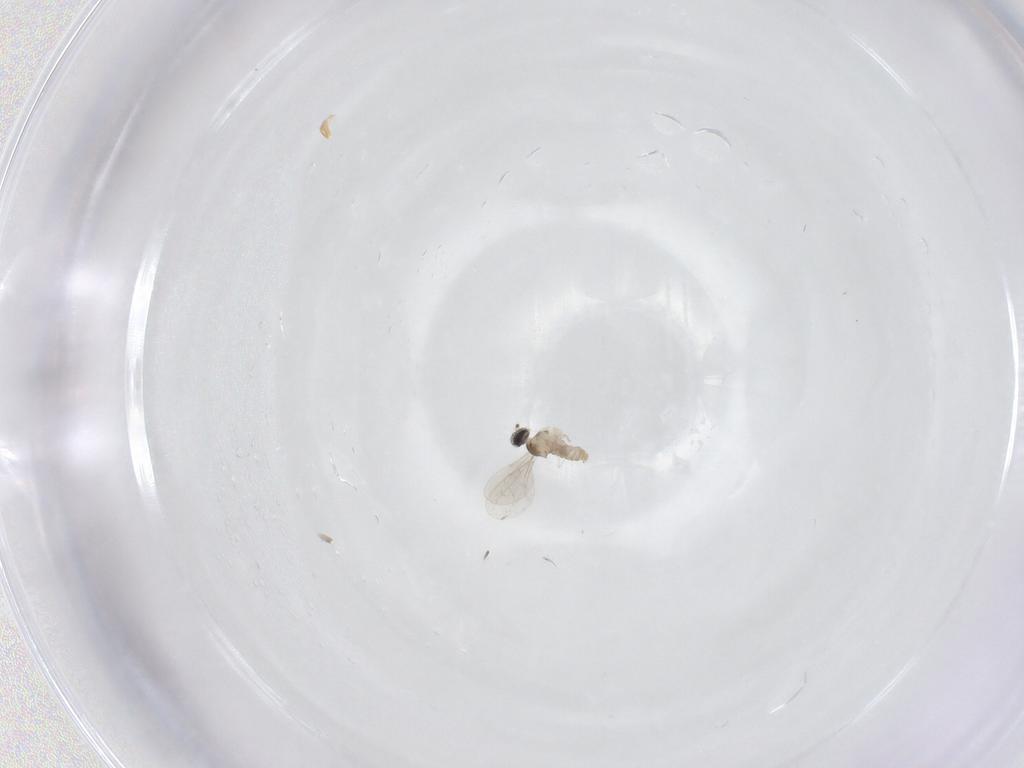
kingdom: Animalia
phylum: Arthropoda
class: Insecta
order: Diptera
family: Cecidomyiidae
